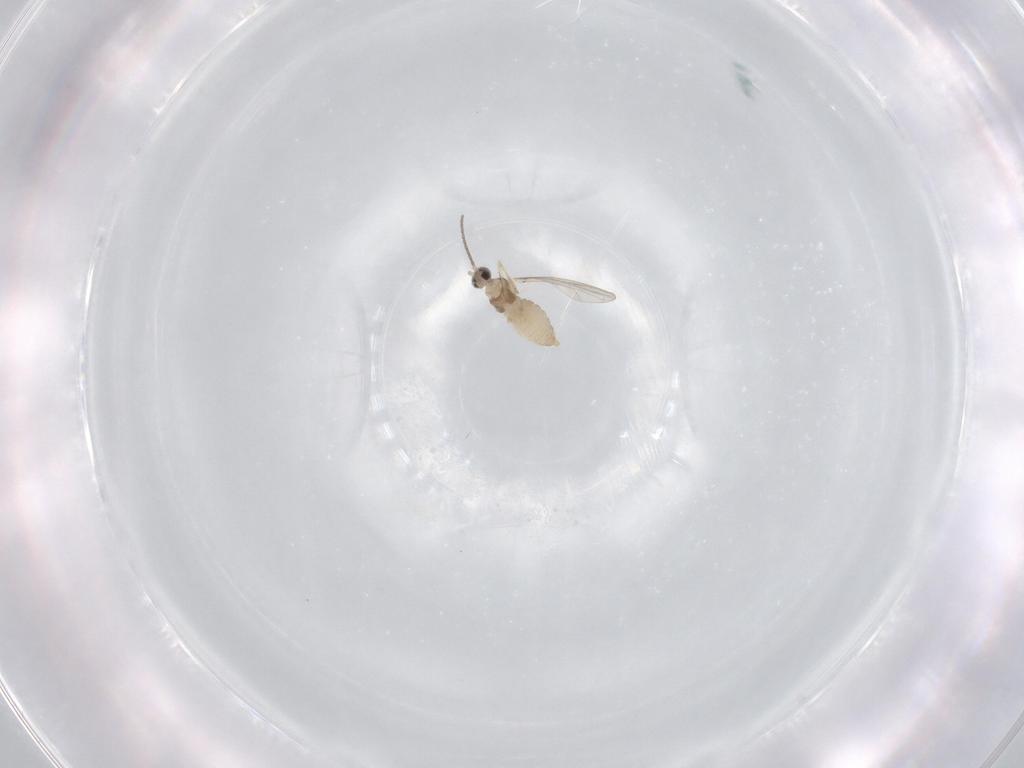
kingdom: Animalia
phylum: Arthropoda
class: Insecta
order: Diptera
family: Cecidomyiidae
